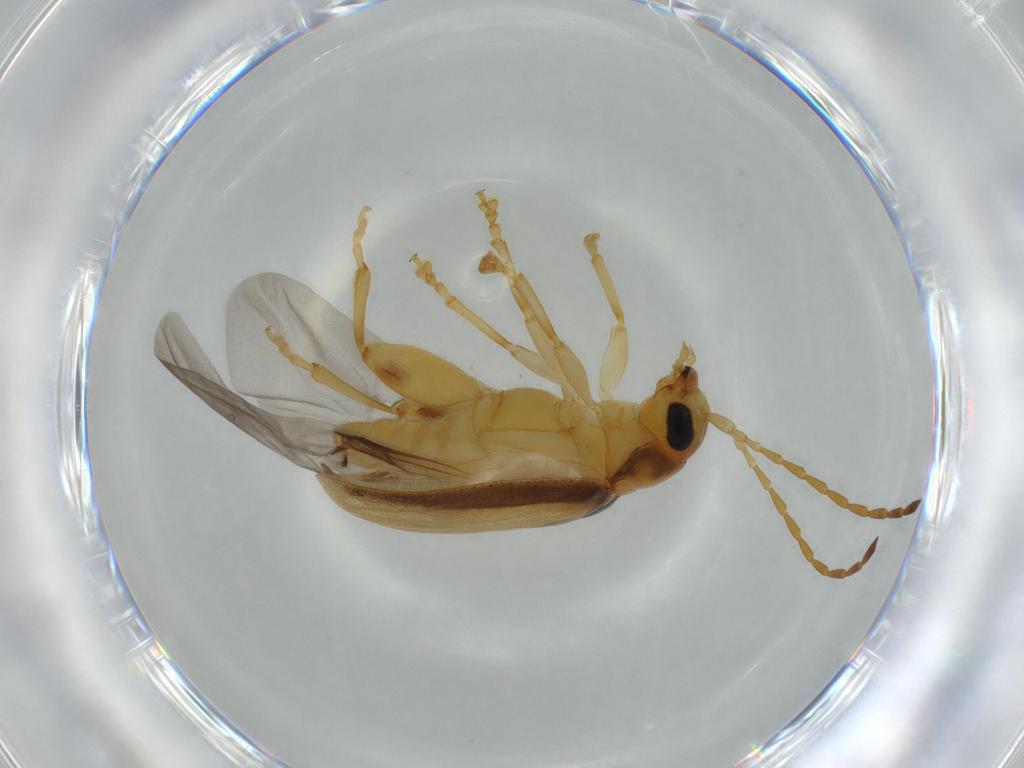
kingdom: Animalia
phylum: Arthropoda
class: Insecta
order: Coleoptera
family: Chrysomelidae
